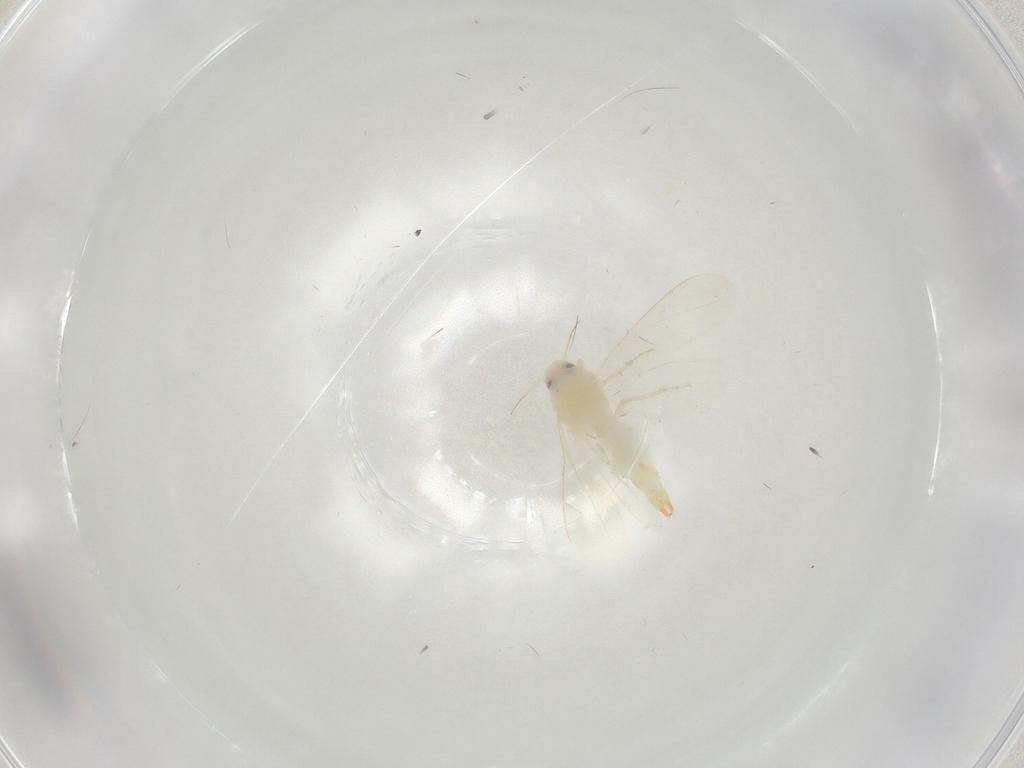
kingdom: Animalia
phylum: Arthropoda
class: Insecta
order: Hemiptera
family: Aleyrodidae
